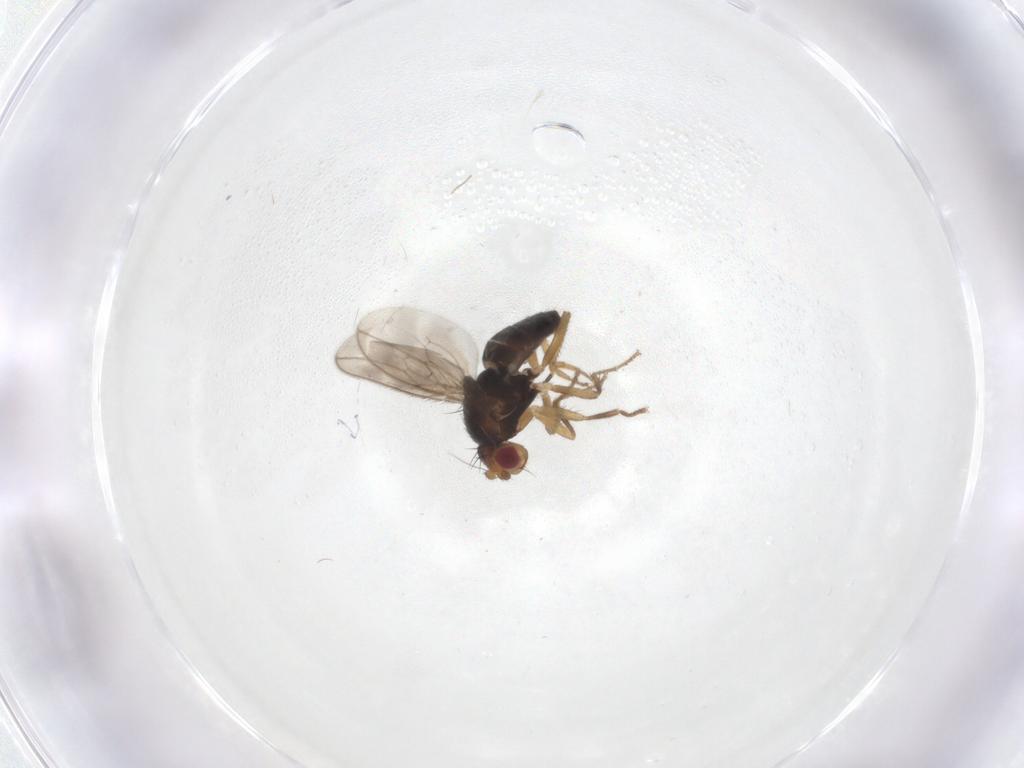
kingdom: Animalia
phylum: Arthropoda
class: Insecta
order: Diptera
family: Sphaeroceridae
